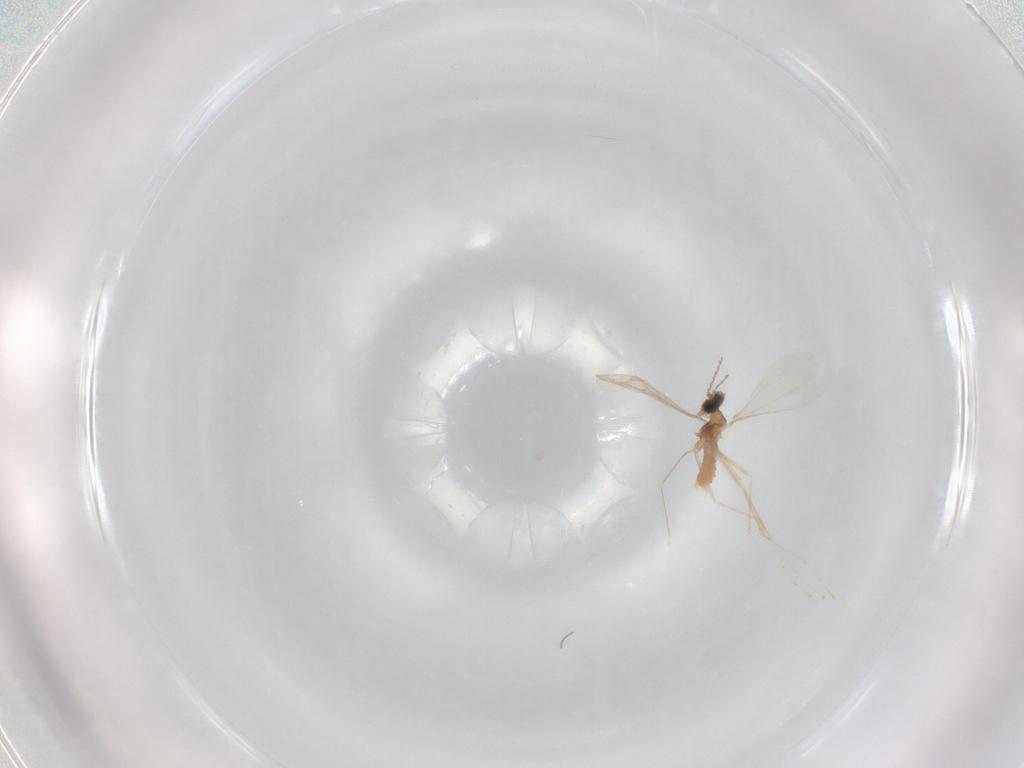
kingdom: Animalia
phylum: Arthropoda
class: Insecta
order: Diptera
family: Cecidomyiidae
